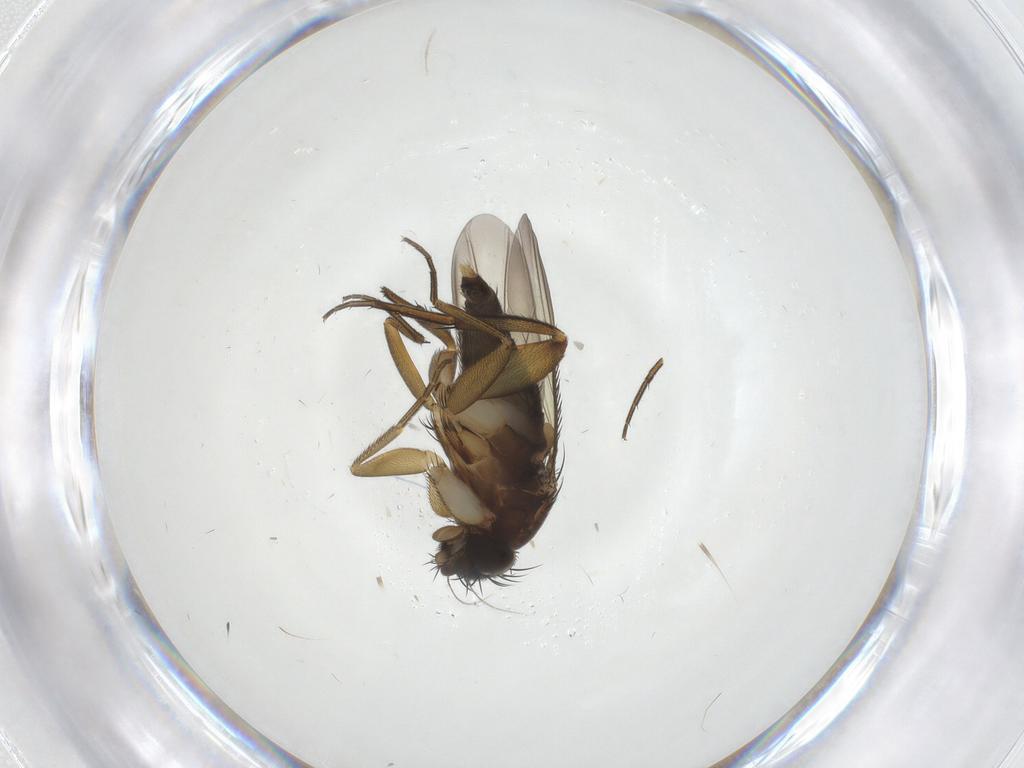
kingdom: Animalia
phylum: Arthropoda
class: Insecta
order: Diptera
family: Phoridae
